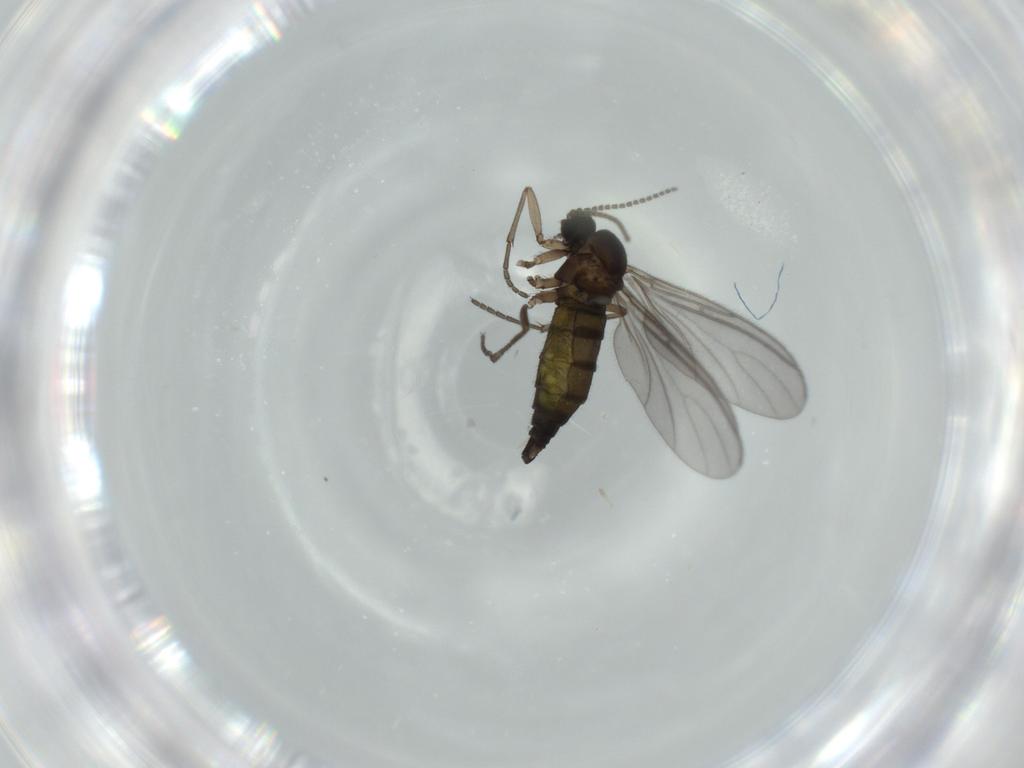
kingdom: Animalia
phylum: Arthropoda
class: Insecta
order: Diptera
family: Sciaridae
